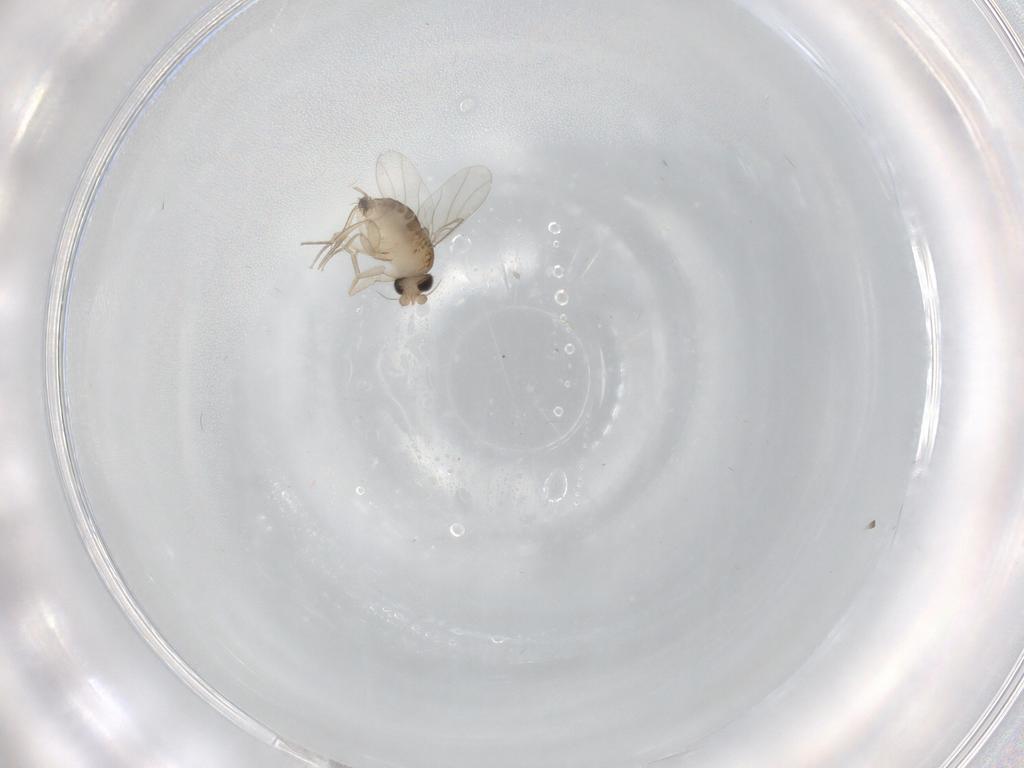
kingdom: Animalia
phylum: Arthropoda
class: Insecta
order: Diptera
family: Phoridae
